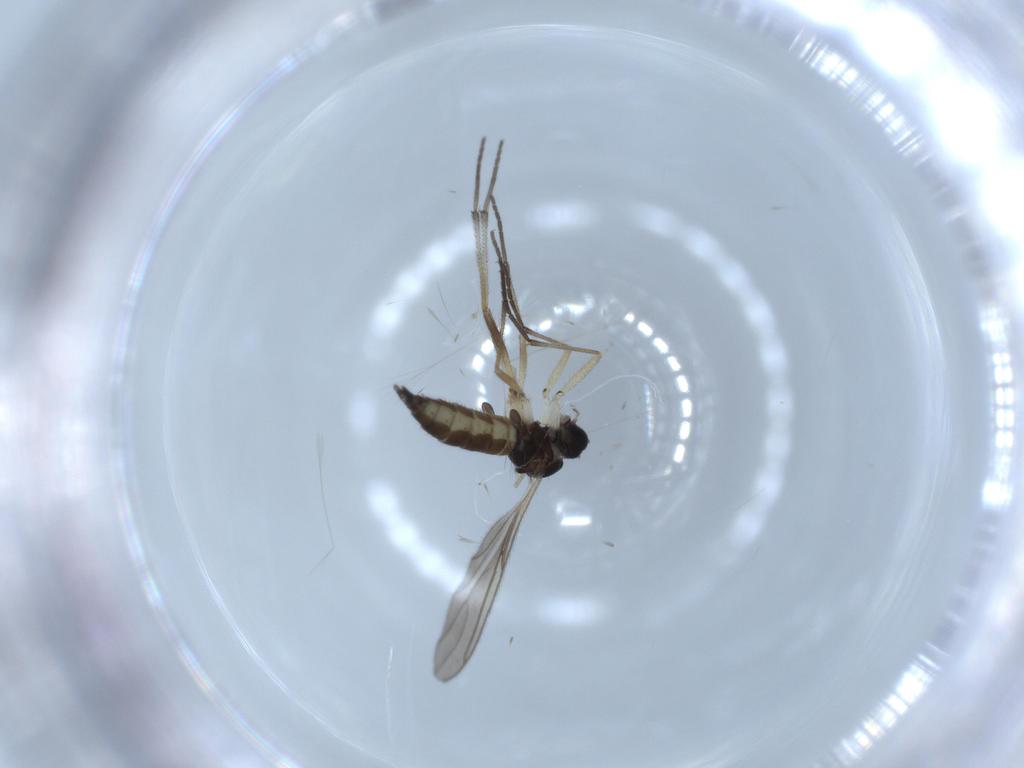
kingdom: Animalia
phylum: Arthropoda
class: Insecta
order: Diptera
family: Sciaridae
